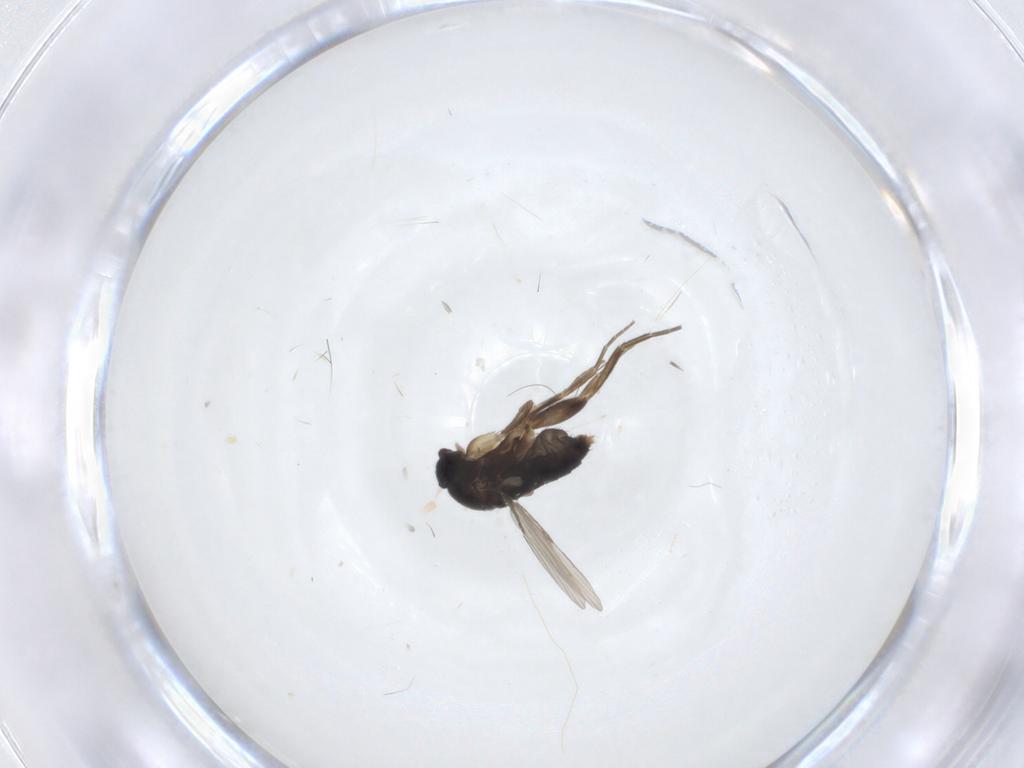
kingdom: Animalia
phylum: Arthropoda
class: Insecta
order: Diptera
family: Phoridae
